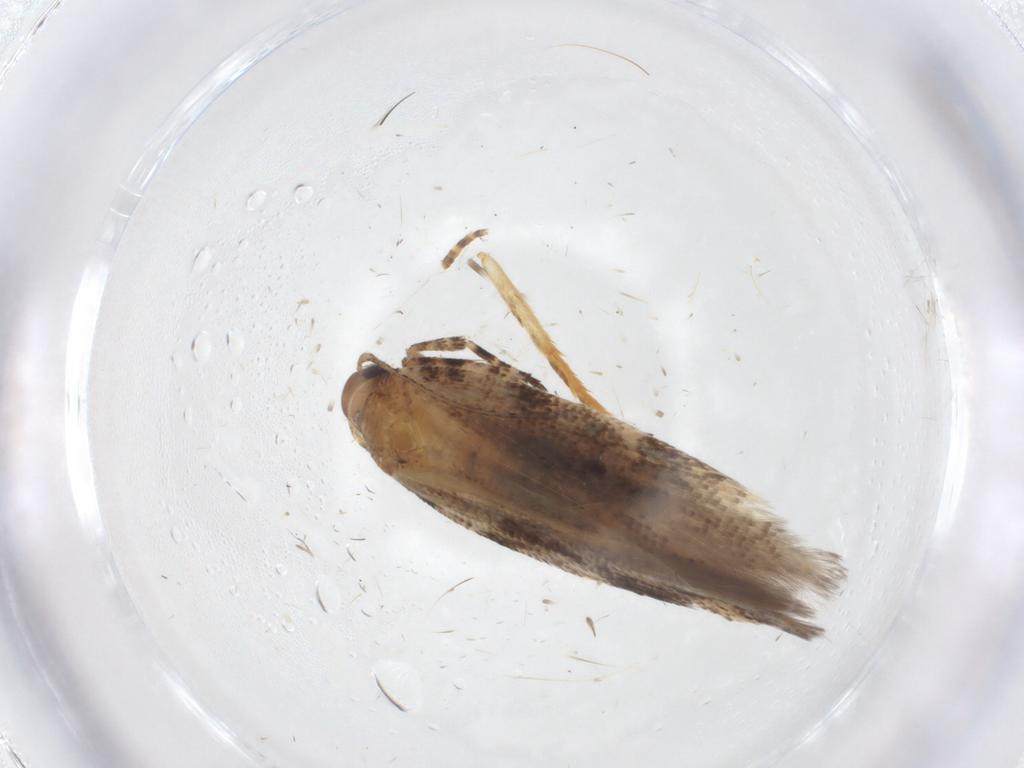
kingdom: Animalia
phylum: Arthropoda
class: Insecta
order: Lepidoptera
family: Gelechiidae
